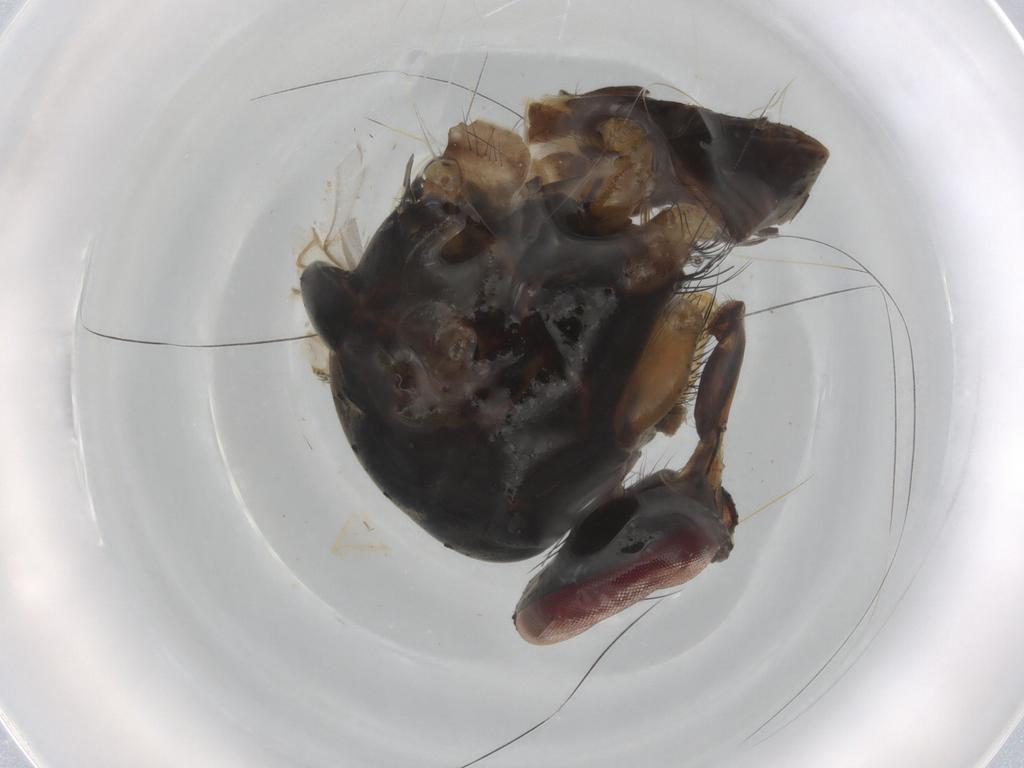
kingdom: Animalia
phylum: Arthropoda
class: Insecta
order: Diptera
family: Muscidae
